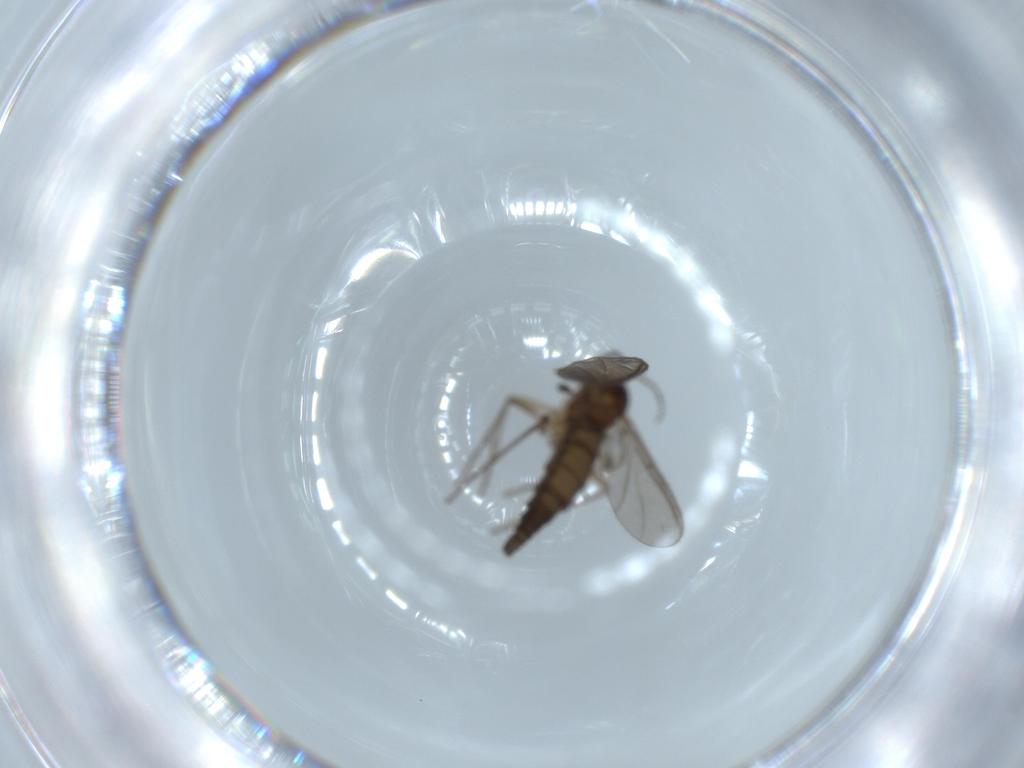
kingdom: Animalia
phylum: Arthropoda
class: Insecta
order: Diptera
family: Sciaridae
